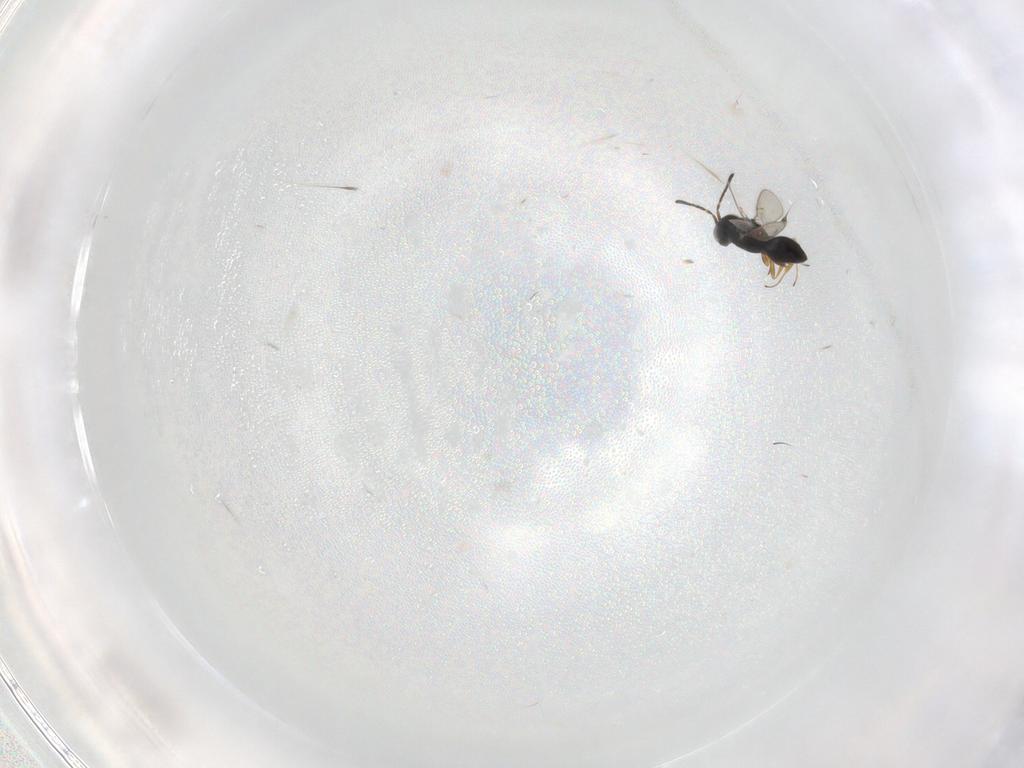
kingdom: Animalia
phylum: Arthropoda
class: Insecta
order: Hymenoptera
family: Scelionidae
